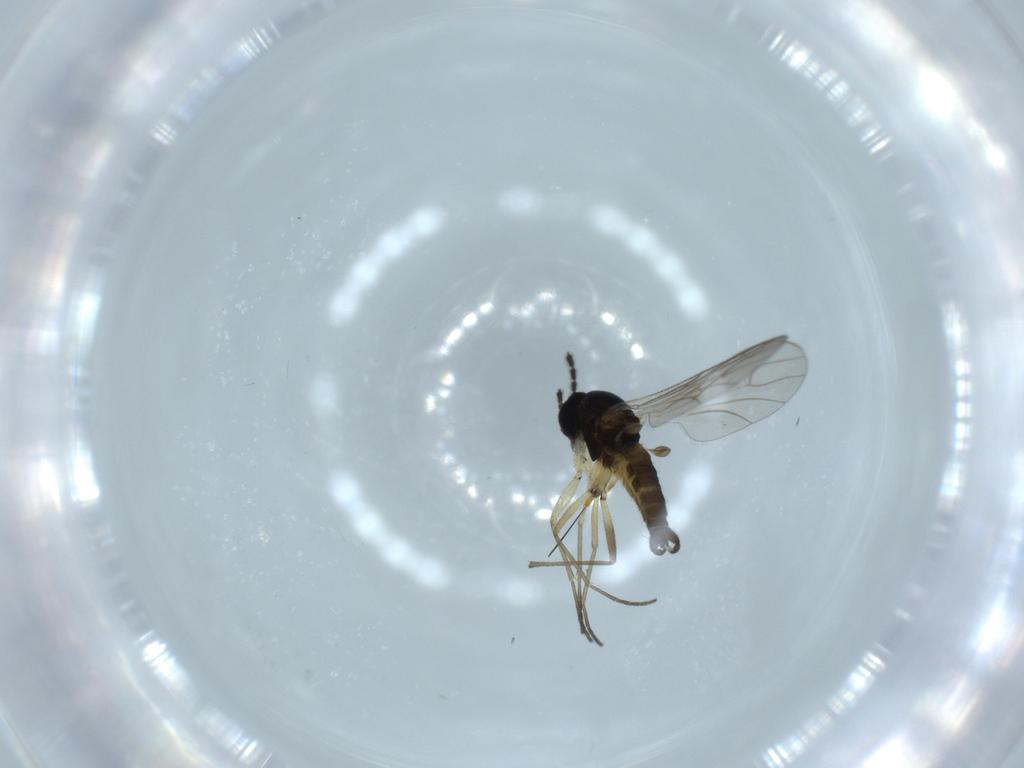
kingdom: Animalia
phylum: Arthropoda
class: Insecta
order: Diptera
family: Sciaridae
